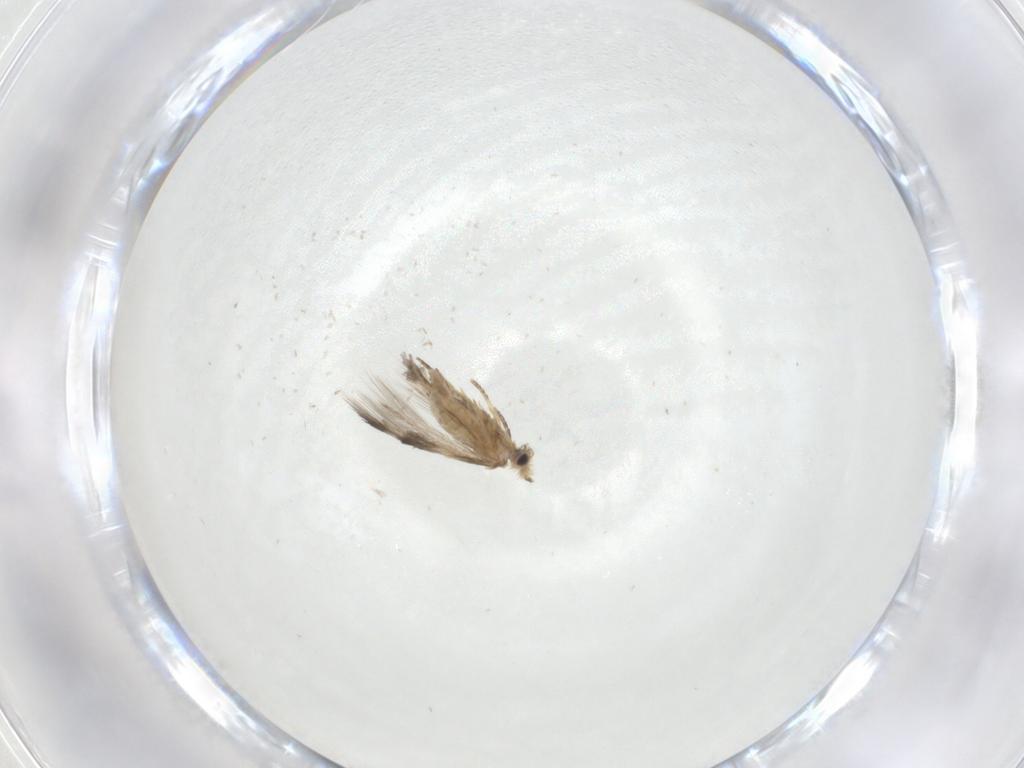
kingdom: Animalia
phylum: Arthropoda
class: Insecta
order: Lepidoptera
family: Nepticulidae
